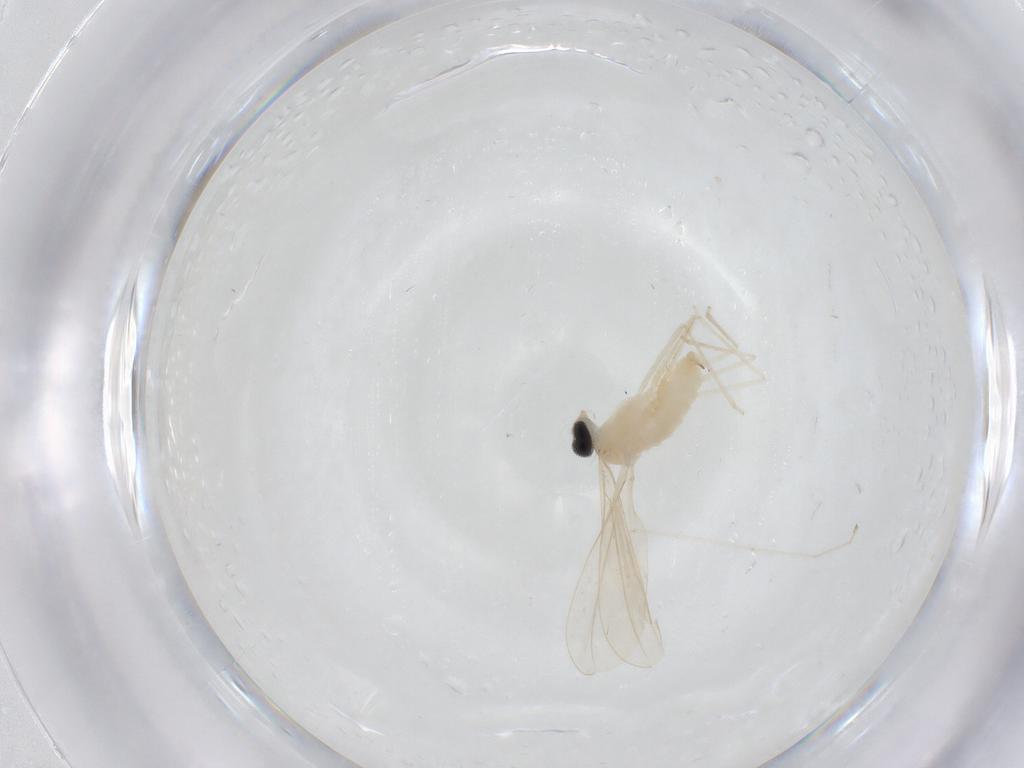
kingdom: Animalia
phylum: Arthropoda
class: Insecta
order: Diptera
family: Cecidomyiidae
